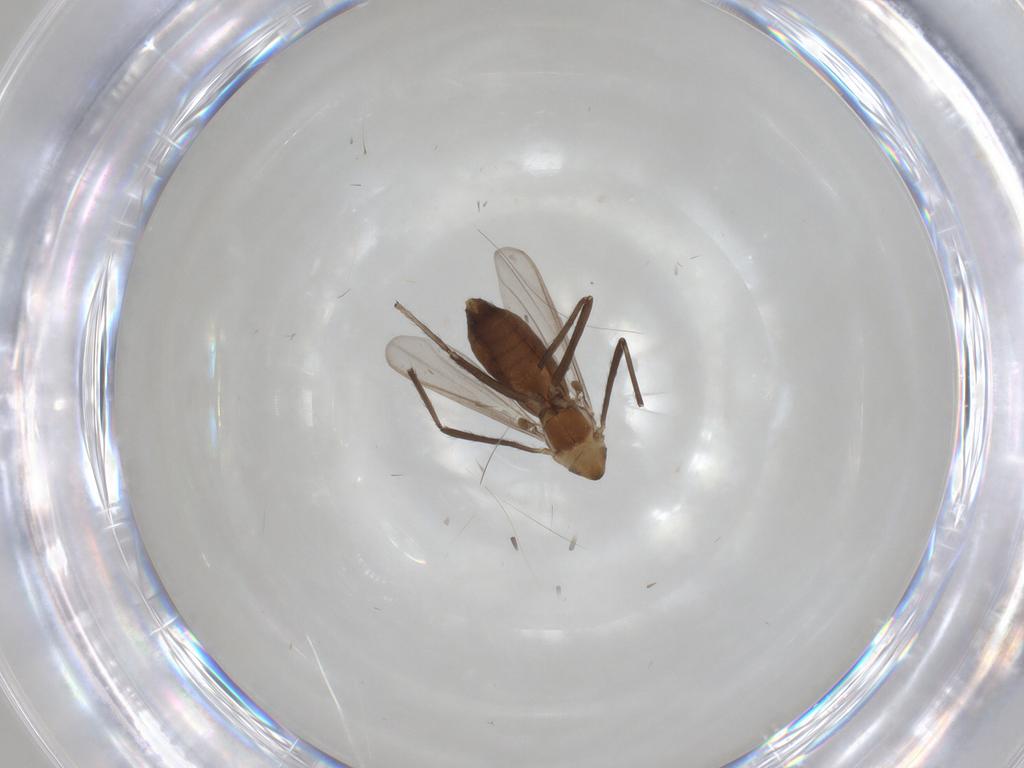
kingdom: Animalia
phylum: Arthropoda
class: Insecta
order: Diptera
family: Chironomidae
